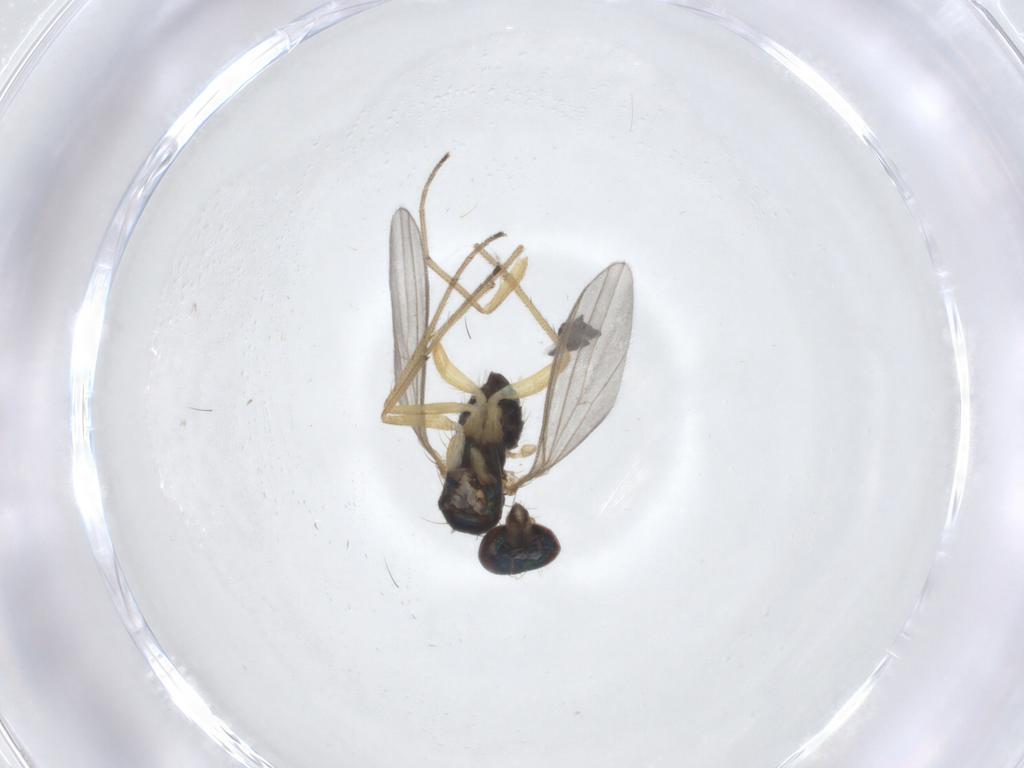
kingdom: Animalia
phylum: Arthropoda
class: Insecta
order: Diptera
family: Dolichopodidae
